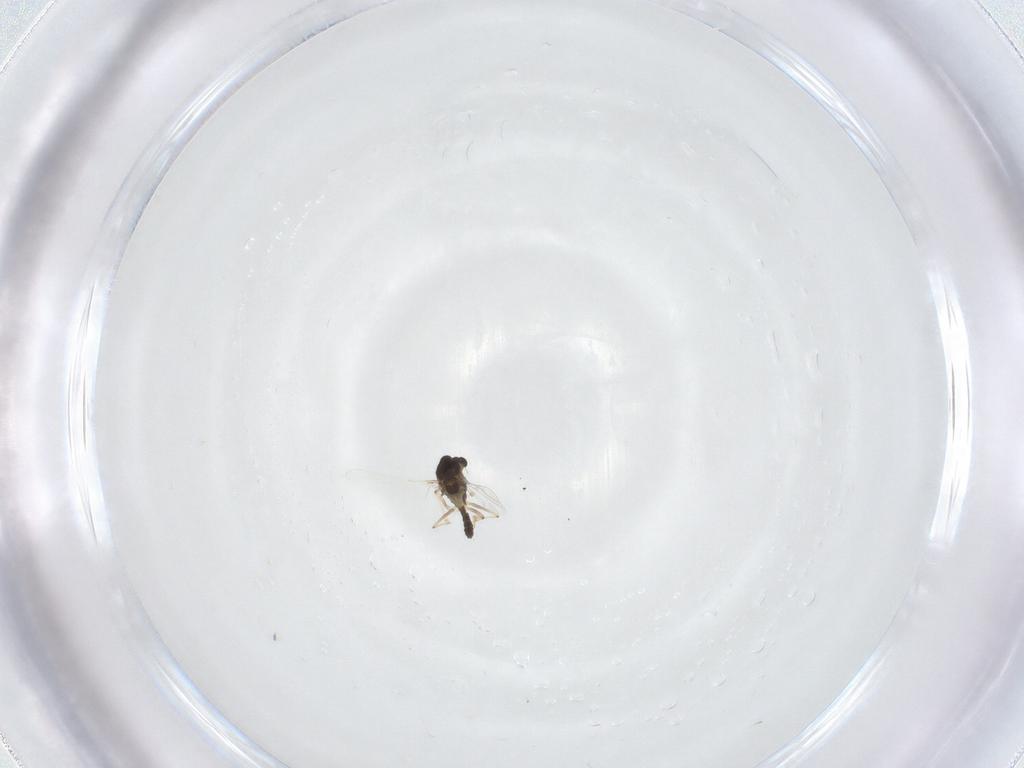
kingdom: Animalia
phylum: Arthropoda
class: Insecta
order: Diptera
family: Chironomidae
